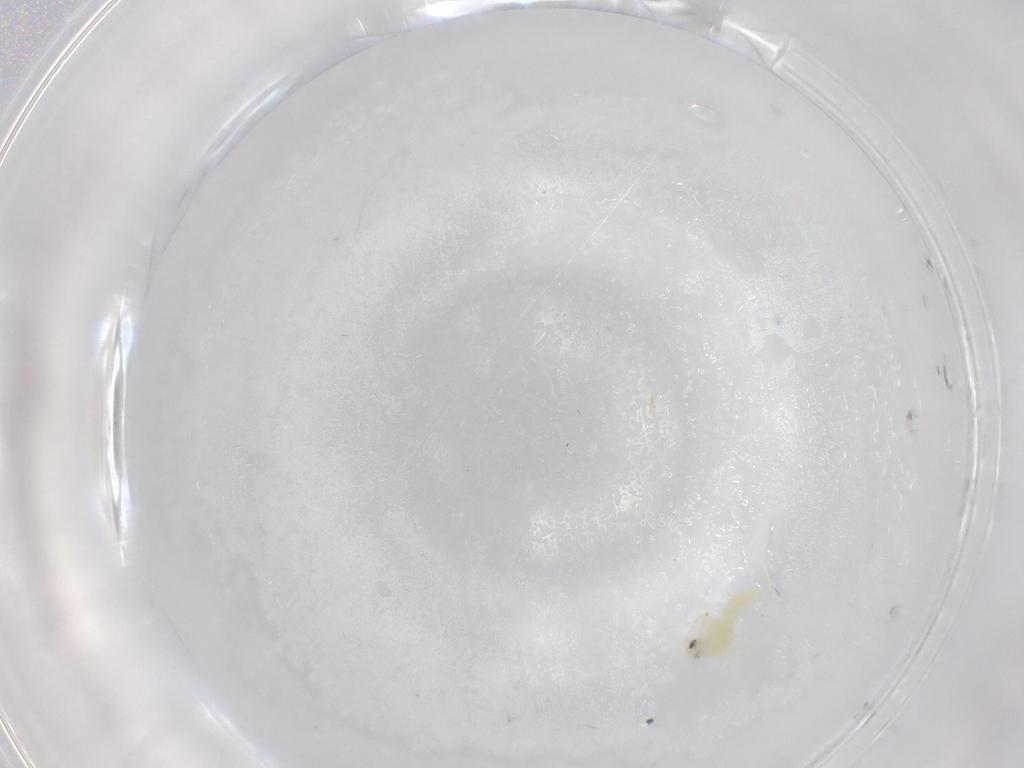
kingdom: Animalia
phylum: Arthropoda
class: Insecta
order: Hemiptera
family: Aleyrodidae
